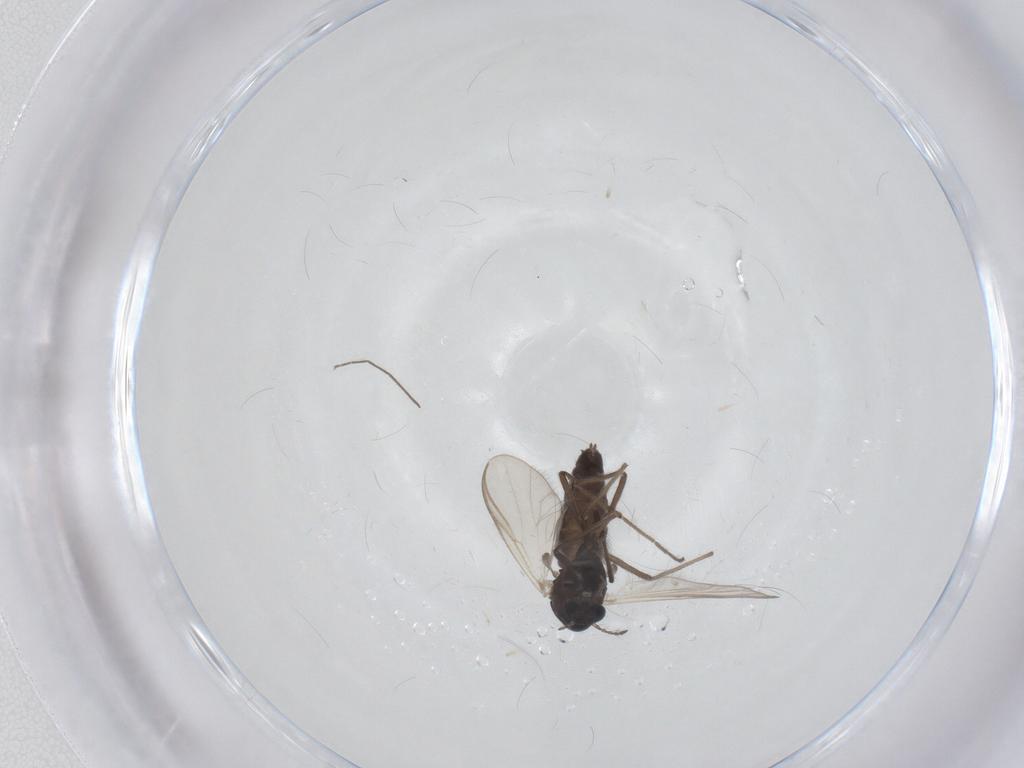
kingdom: Animalia
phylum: Arthropoda
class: Insecta
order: Diptera
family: Chironomidae
